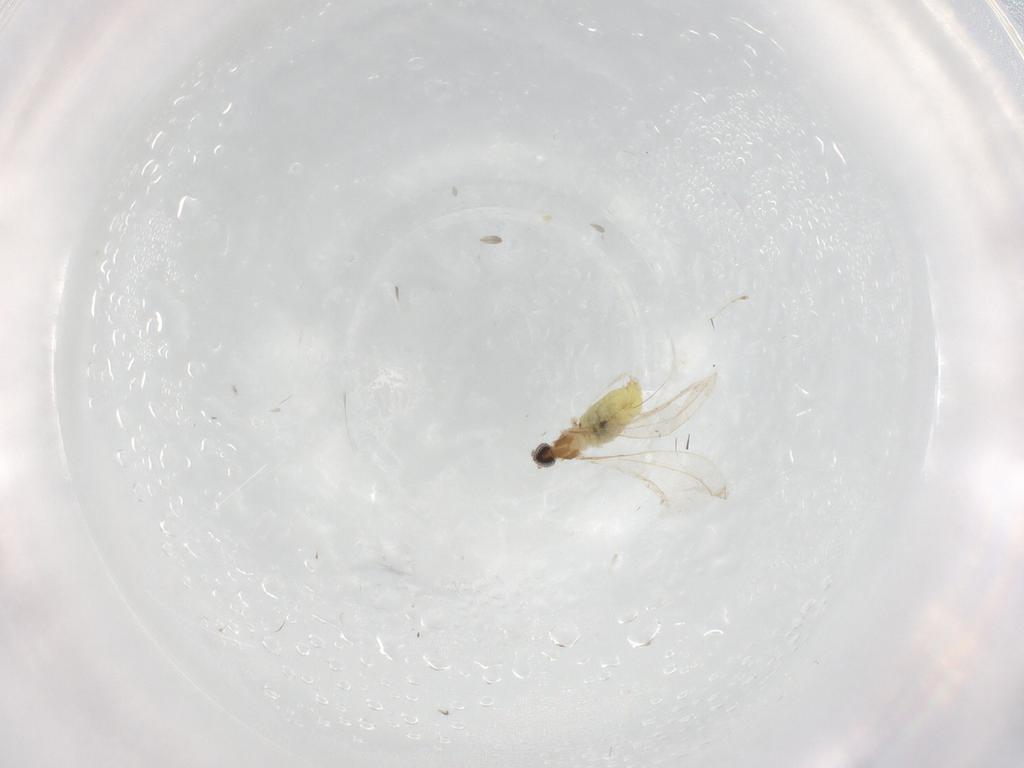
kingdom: Animalia
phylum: Arthropoda
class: Insecta
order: Diptera
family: Cecidomyiidae
